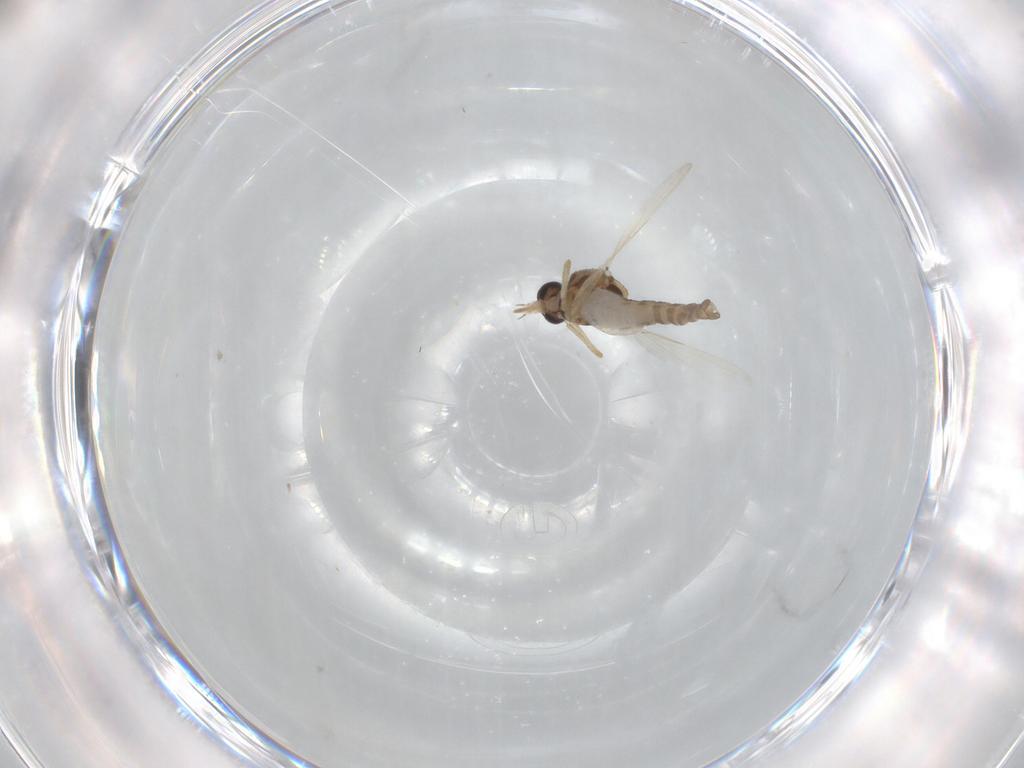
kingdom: Animalia
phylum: Arthropoda
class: Insecta
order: Diptera
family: Ceratopogonidae
